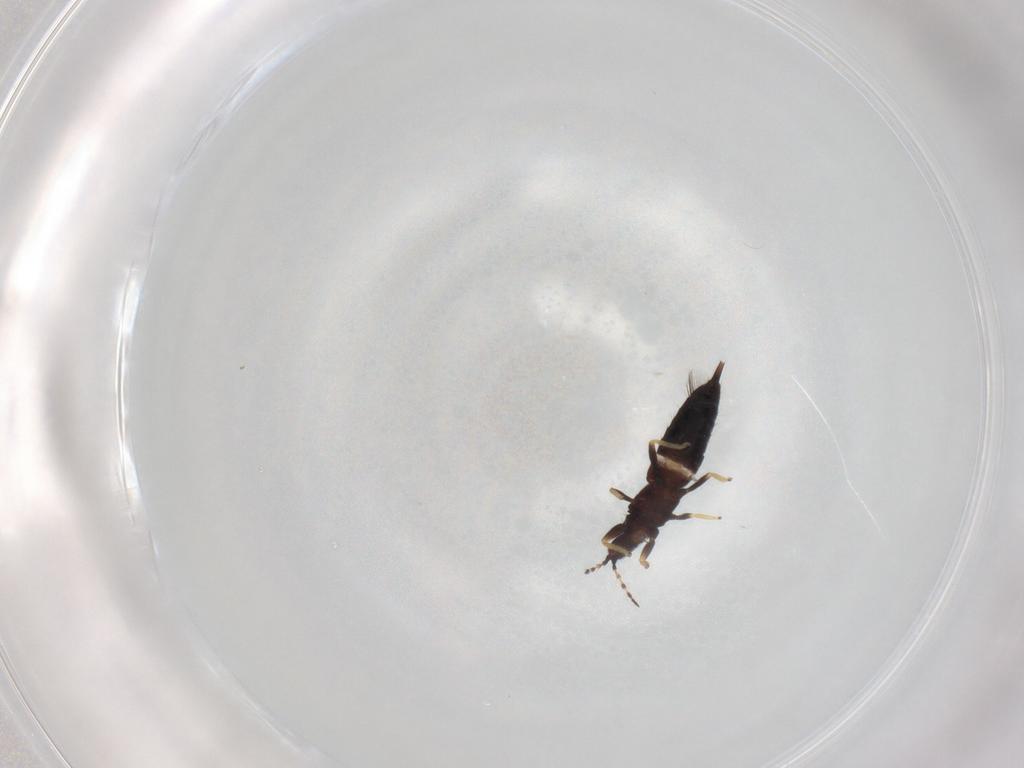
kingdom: Animalia
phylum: Arthropoda
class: Insecta
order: Thysanoptera
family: Phlaeothripidae
